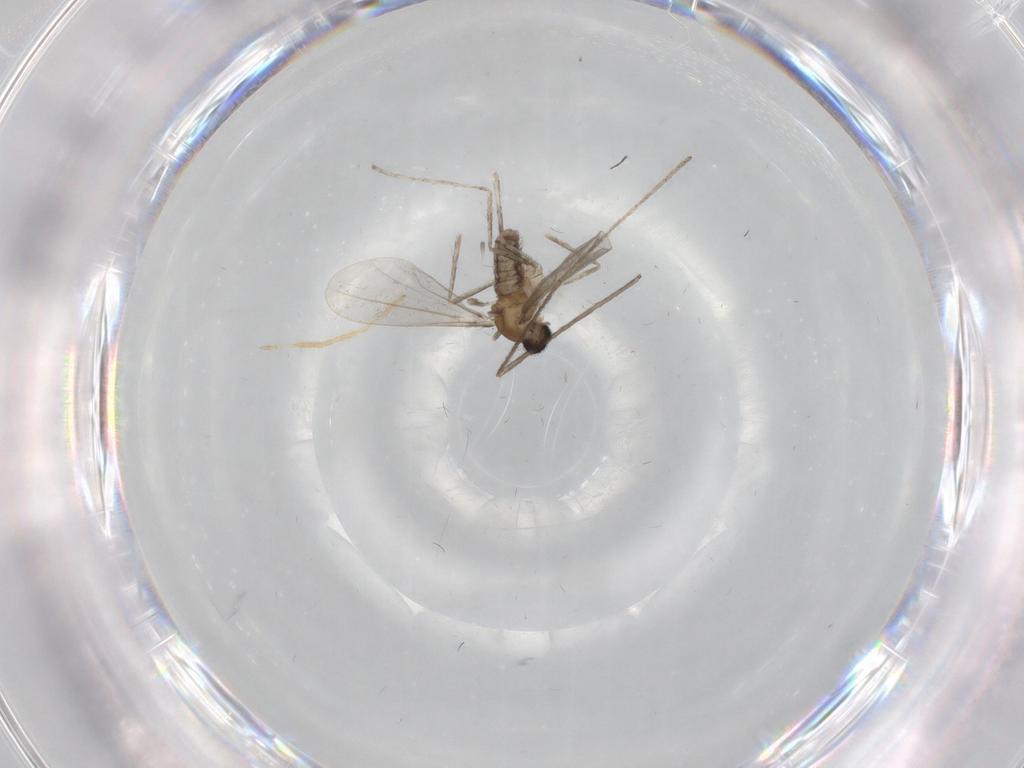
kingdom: Animalia
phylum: Arthropoda
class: Insecta
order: Diptera
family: Cecidomyiidae
